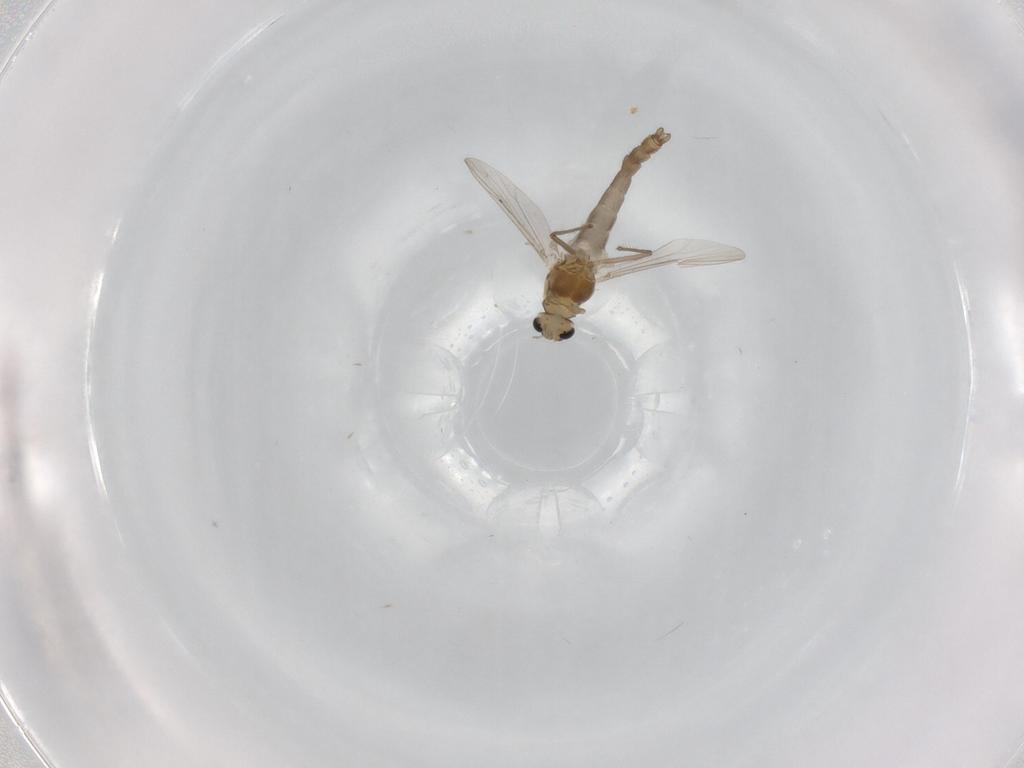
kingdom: Animalia
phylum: Arthropoda
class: Insecta
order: Diptera
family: Chironomidae
